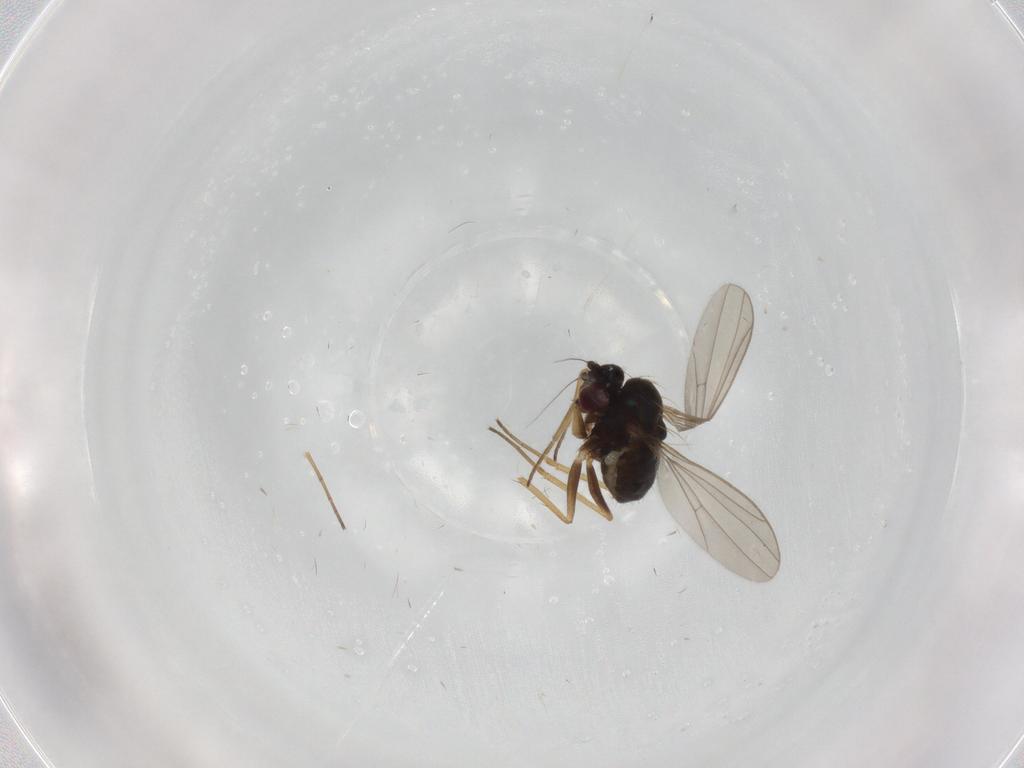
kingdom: Animalia
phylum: Arthropoda
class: Insecta
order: Diptera
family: Dolichopodidae
